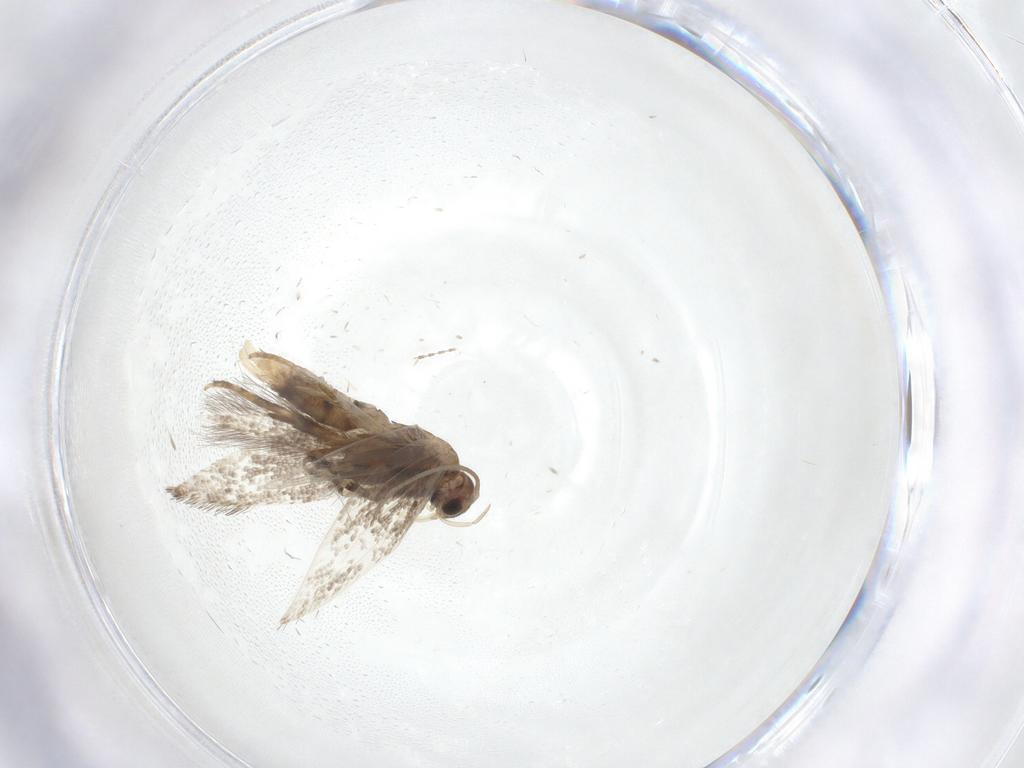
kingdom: Animalia
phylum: Arthropoda
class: Insecta
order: Lepidoptera
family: Elachistidae
